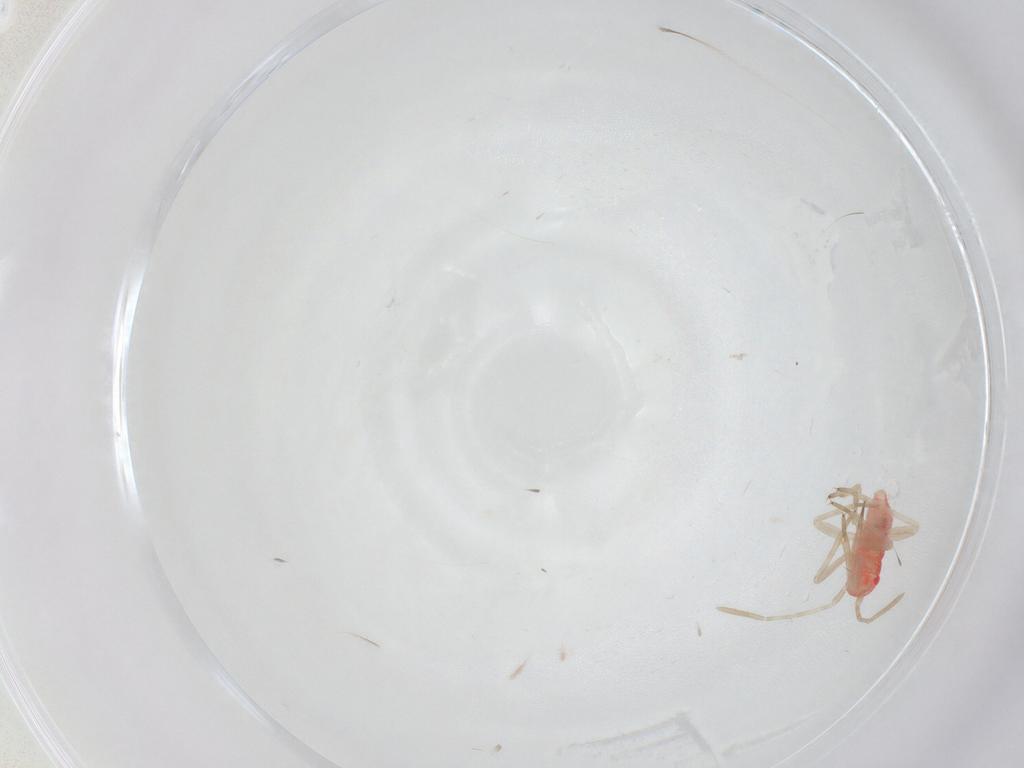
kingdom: Animalia
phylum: Arthropoda
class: Insecta
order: Hemiptera
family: Miridae
